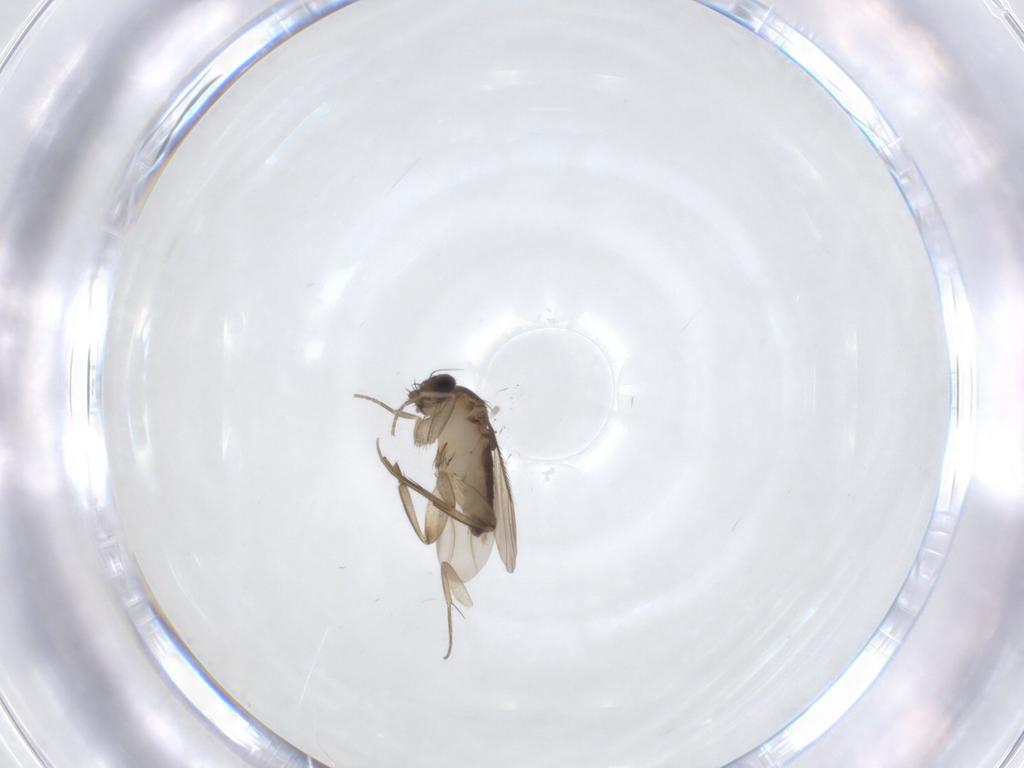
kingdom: Animalia
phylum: Arthropoda
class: Insecta
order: Diptera
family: Phoridae
